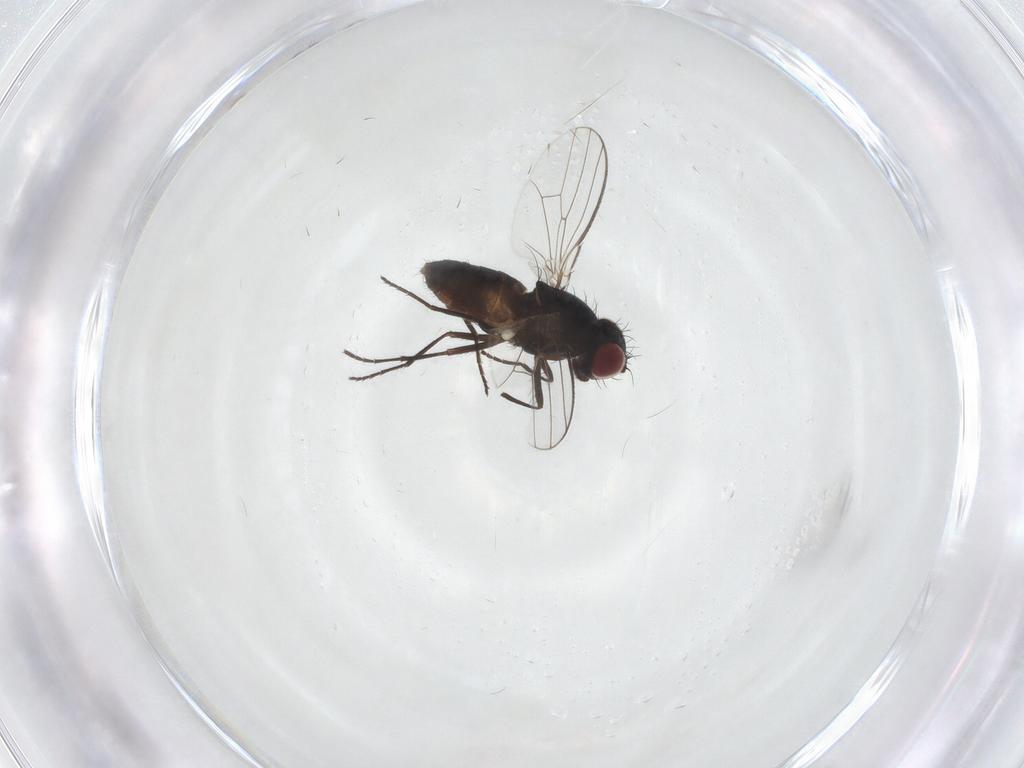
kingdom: Animalia
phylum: Arthropoda
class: Insecta
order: Diptera
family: Carnidae
